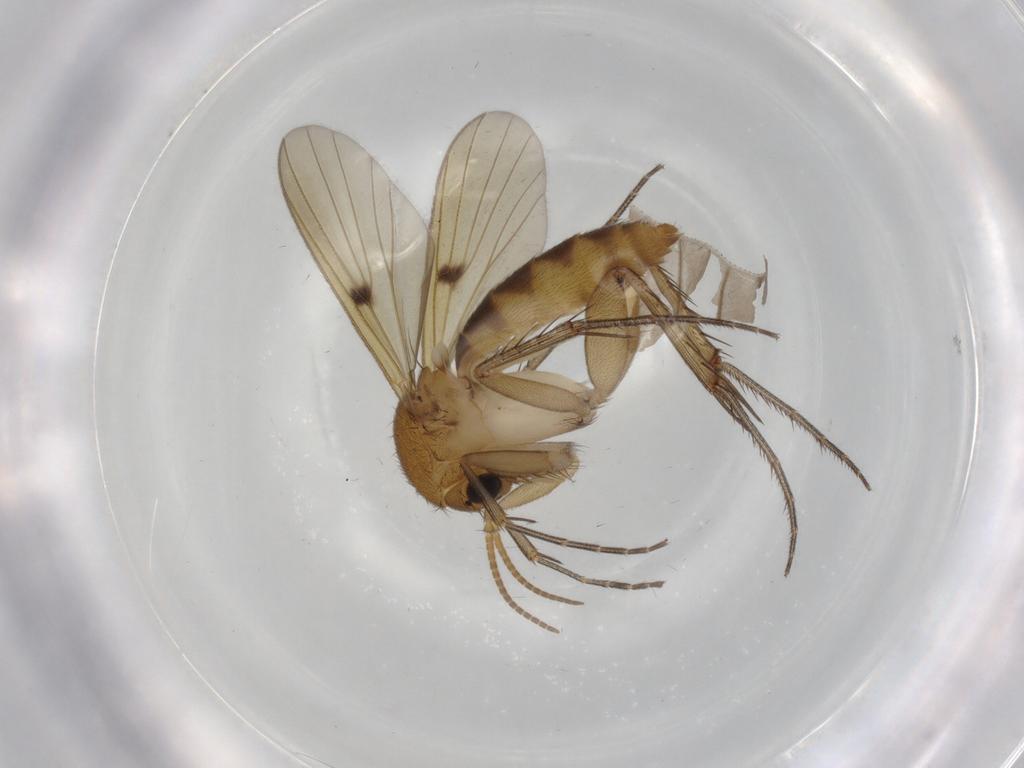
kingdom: Animalia
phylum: Arthropoda
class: Insecta
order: Diptera
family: Mycetophilidae
